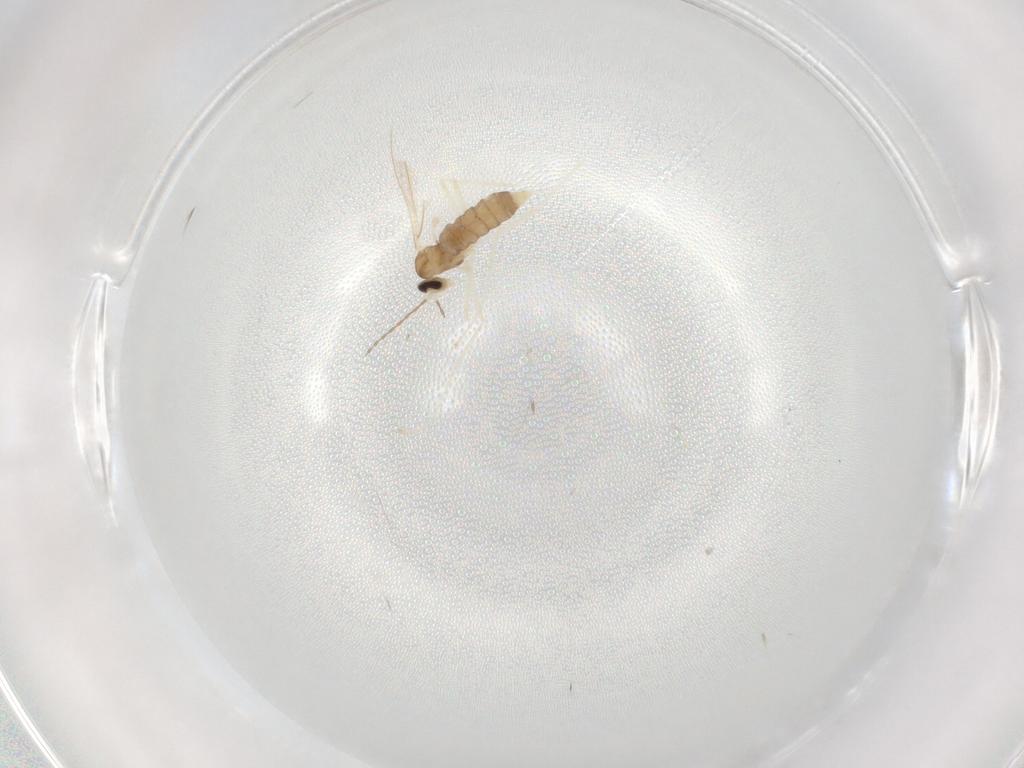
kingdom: Animalia
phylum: Arthropoda
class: Insecta
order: Diptera
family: Cecidomyiidae
